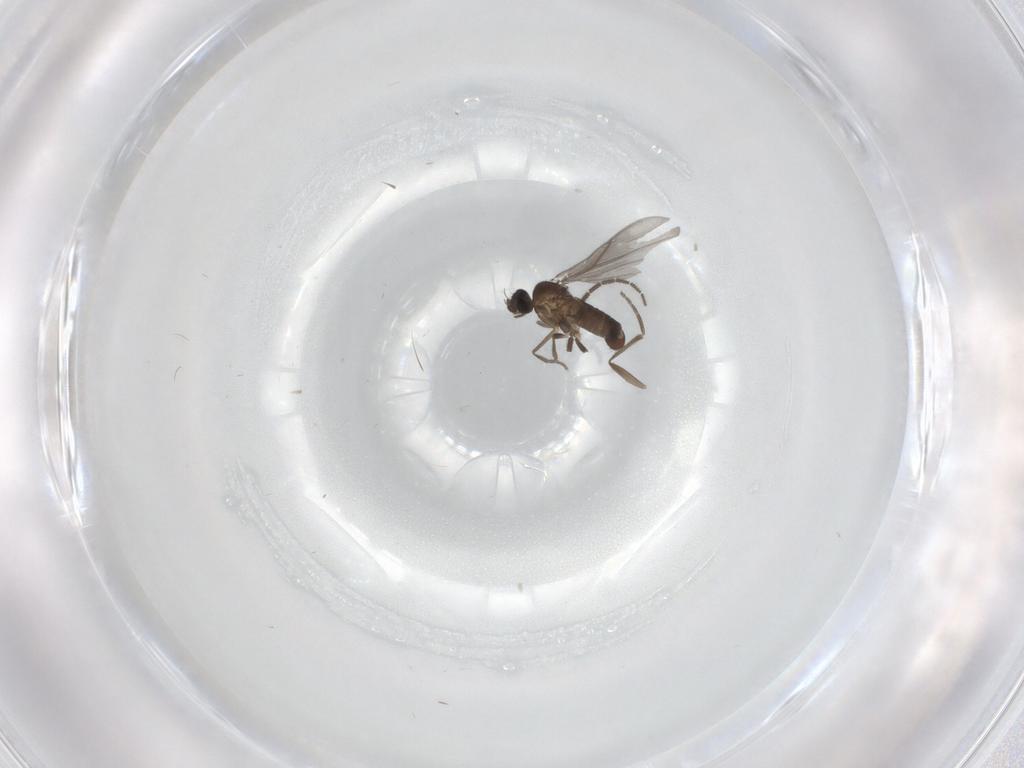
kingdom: Animalia
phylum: Arthropoda
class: Insecta
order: Diptera
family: Phoridae
